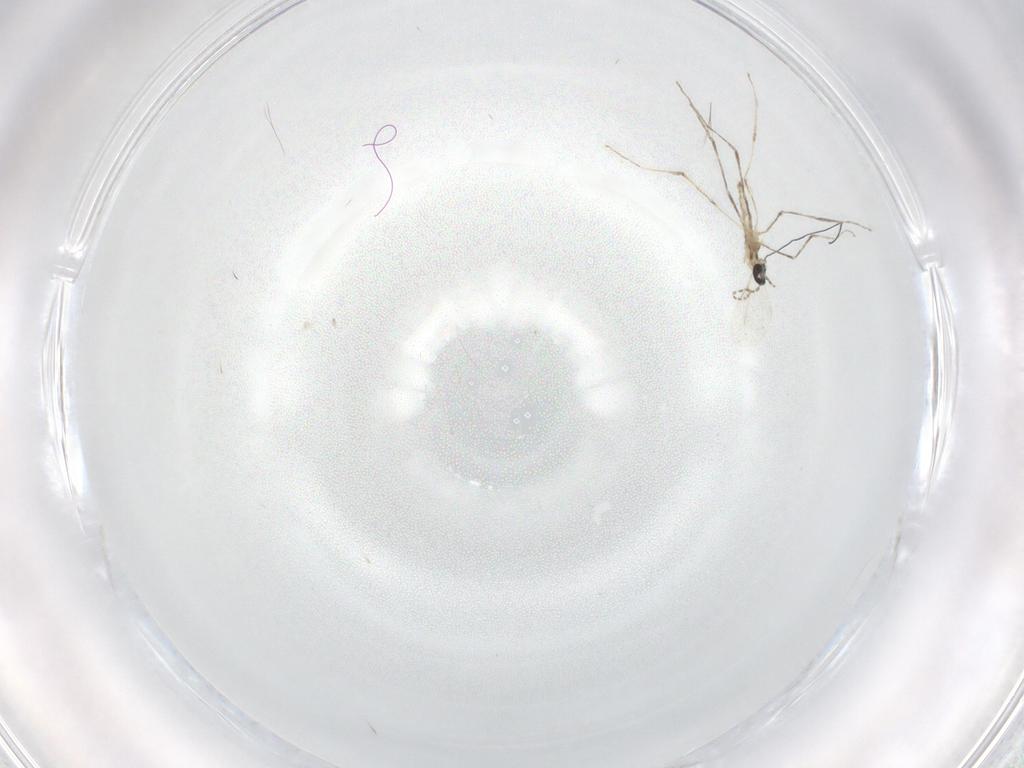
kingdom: Animalia
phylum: Arthropoda
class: Insecta
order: Diptera
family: Cecidomyiidae
